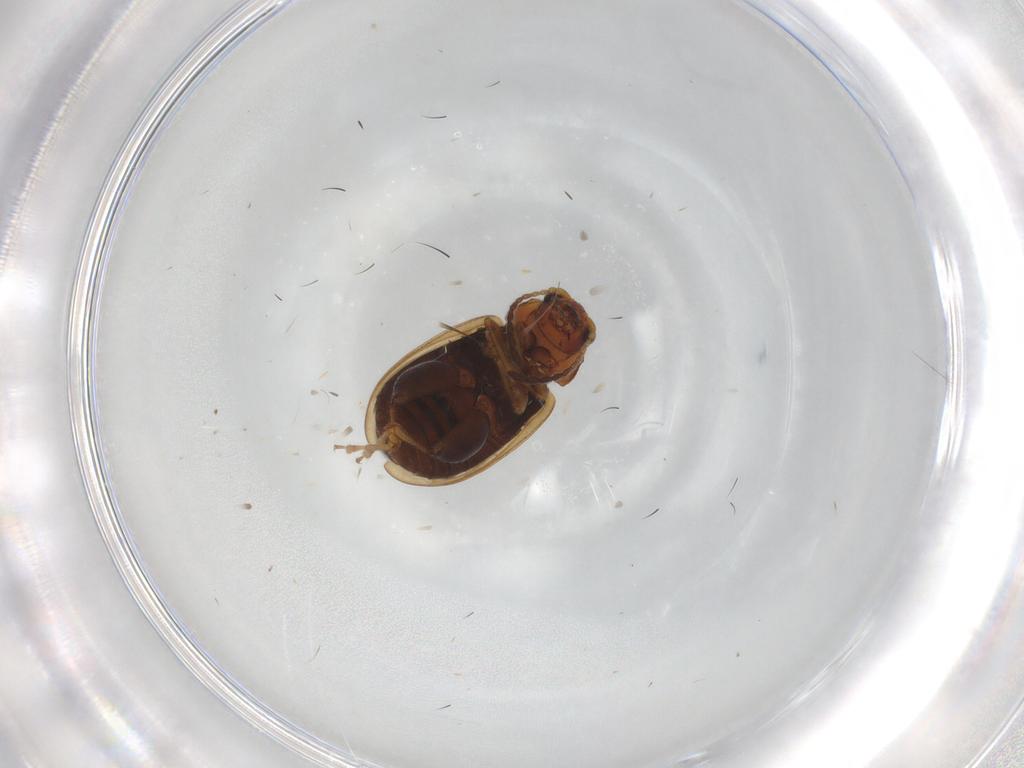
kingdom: Animalia
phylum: Arthropoda
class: Insecta
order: Coleoptera
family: Chrysomelidae
